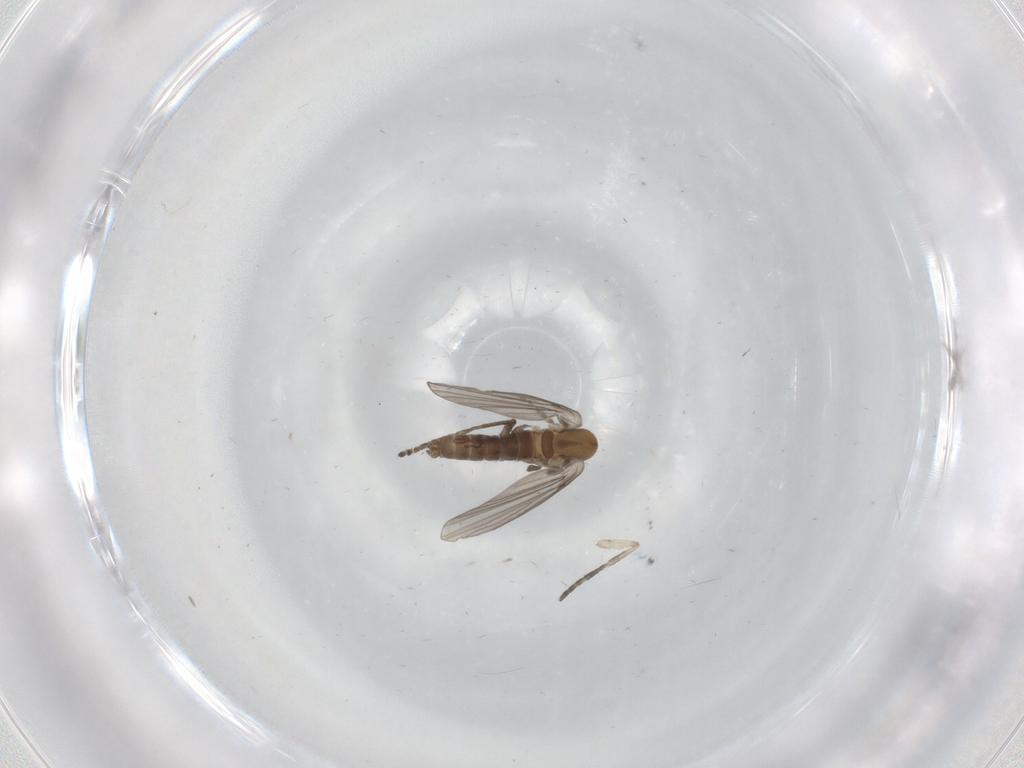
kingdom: Animalia
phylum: Arthropoda
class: Insecta
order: Diptera
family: Psychodidae
